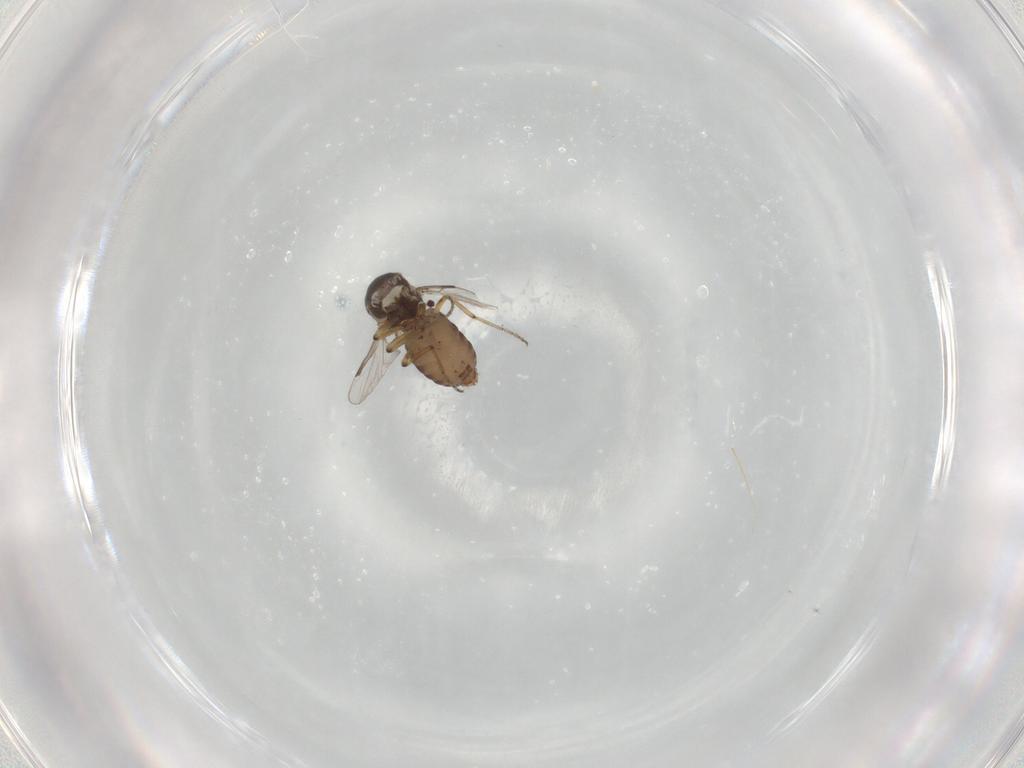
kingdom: Animalia
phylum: Arthropoda
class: Insecta
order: Diptera
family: Ceratopogonidae
